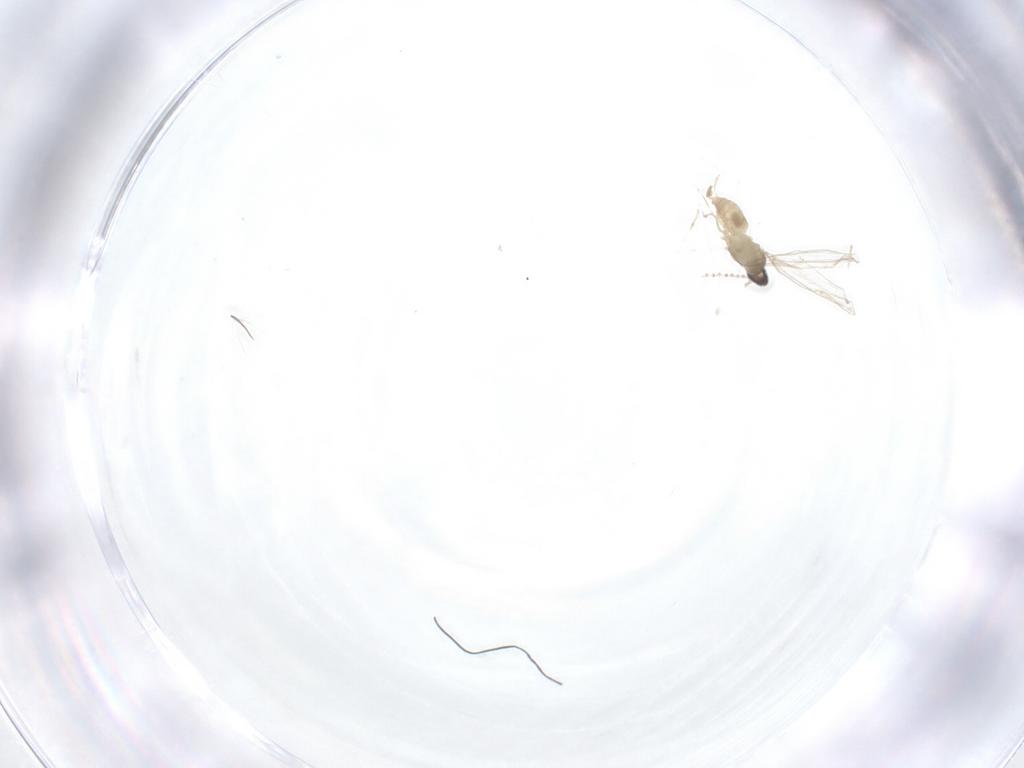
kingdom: Animalia
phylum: Arthropoda
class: Insecta
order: Diptera
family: Cecidomyiidae
